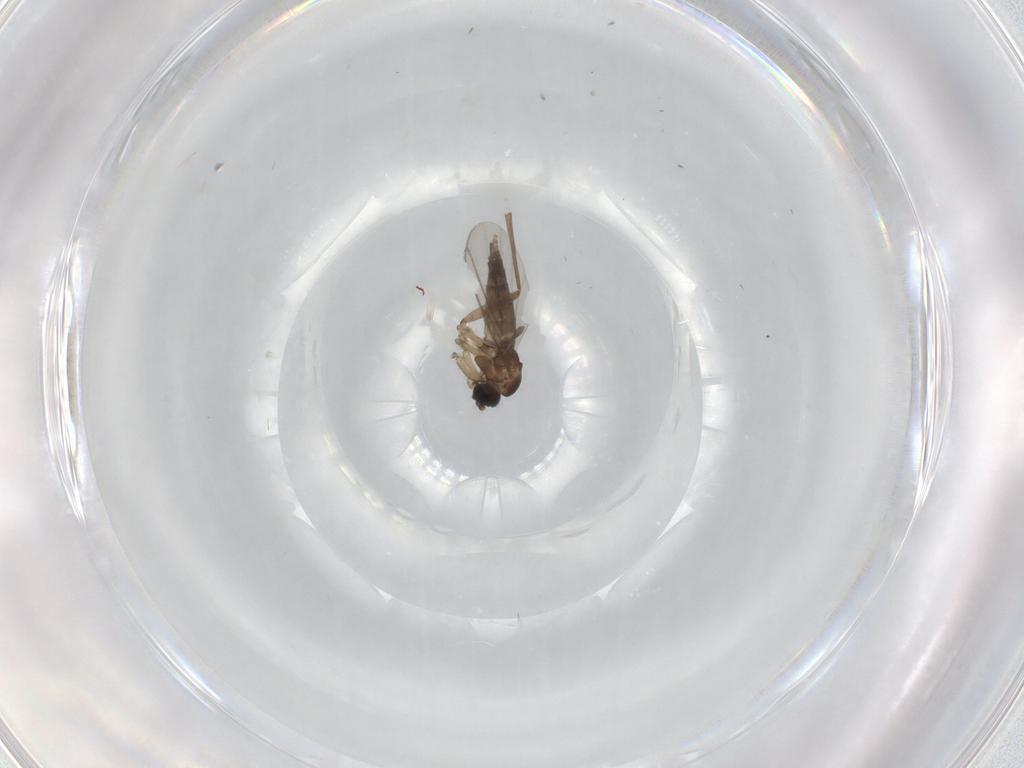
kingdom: Animalia
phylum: Arthropoda
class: Insecta
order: Diptera
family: Sciaridae
